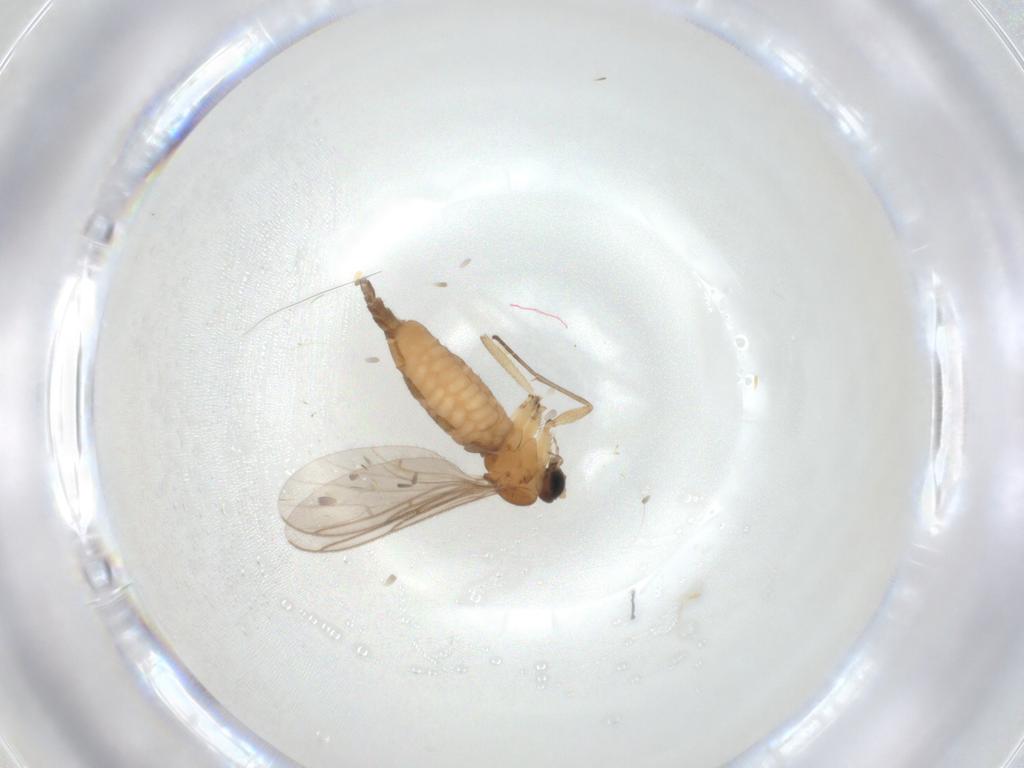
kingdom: Animalia
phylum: Arthropoda
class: Insecta
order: Diptera
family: Sciaridae
